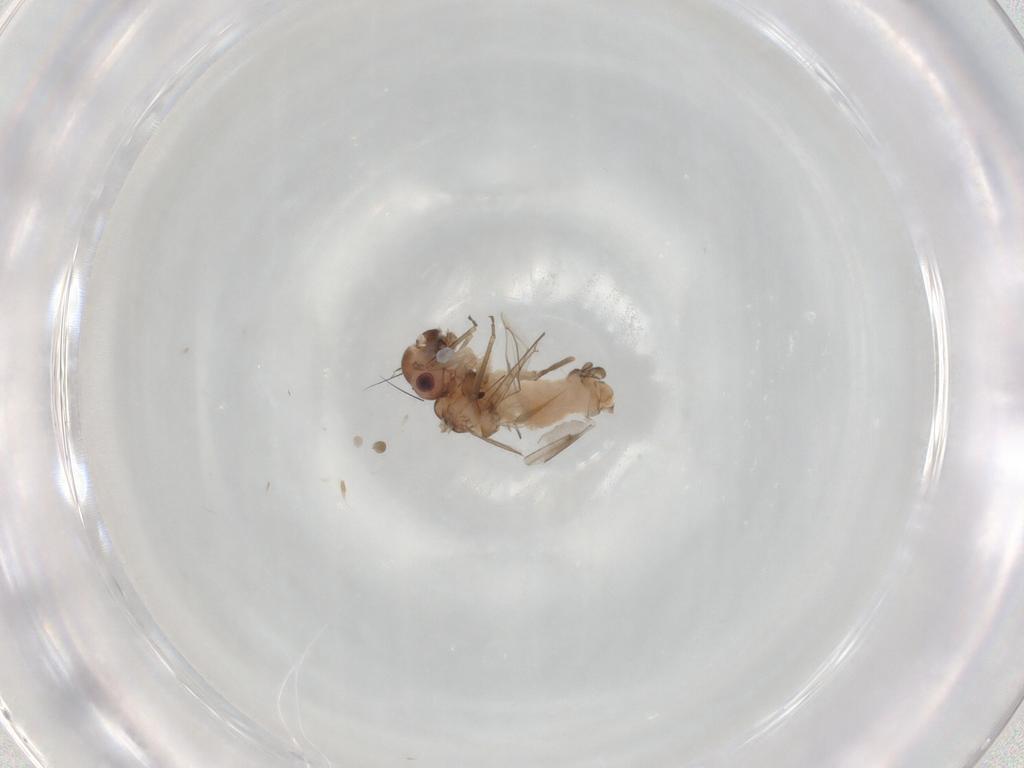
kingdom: Animalia
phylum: Arthropoda
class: Insecta
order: Psocodea
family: Peripsocidae
